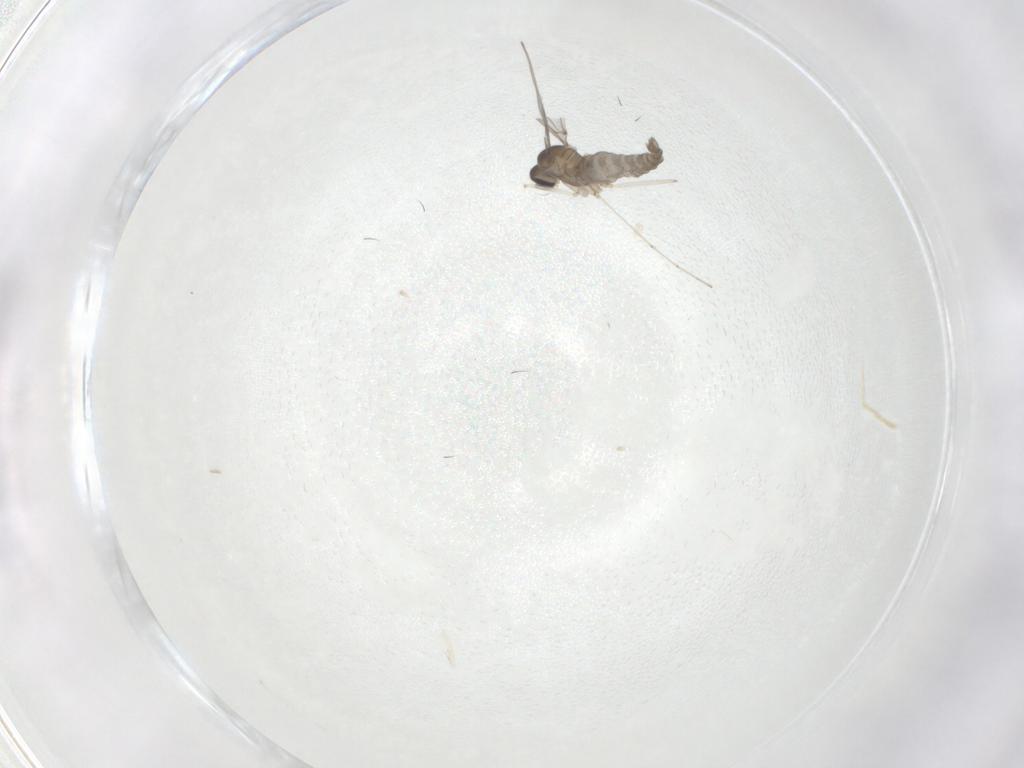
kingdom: Animalia
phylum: Arthropoda
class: Insecta
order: Diptera
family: Cecidomyiidae
